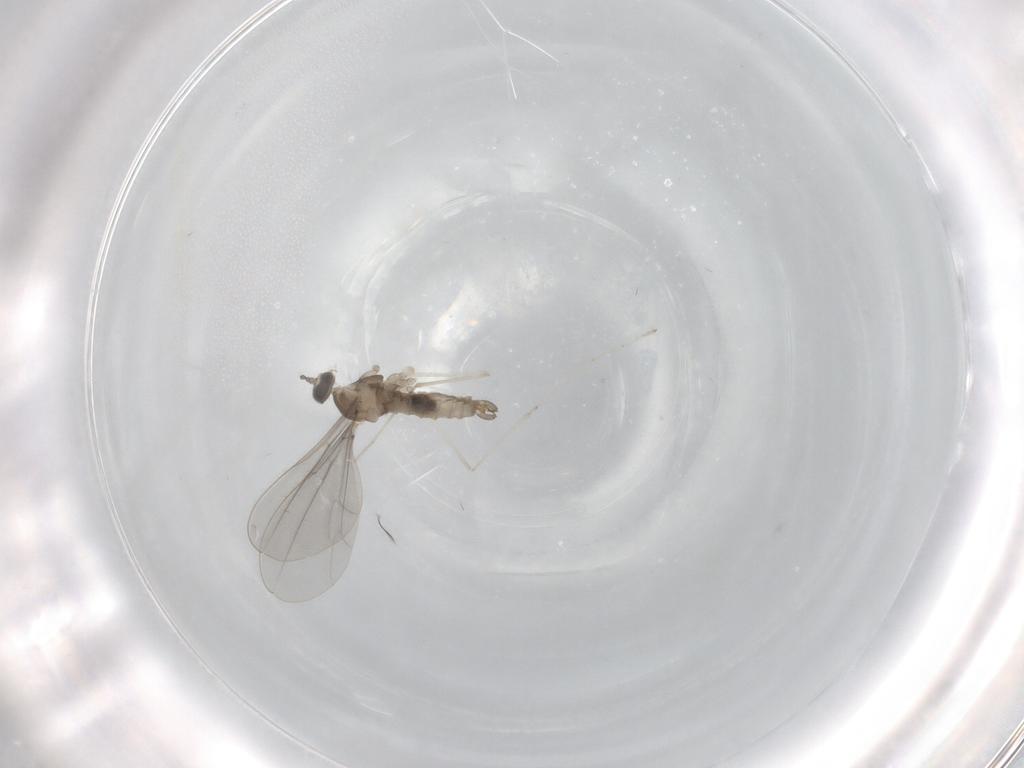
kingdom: Animalia
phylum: Arthropoda
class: Insecta
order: Diptera
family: Cecidomyiidae
